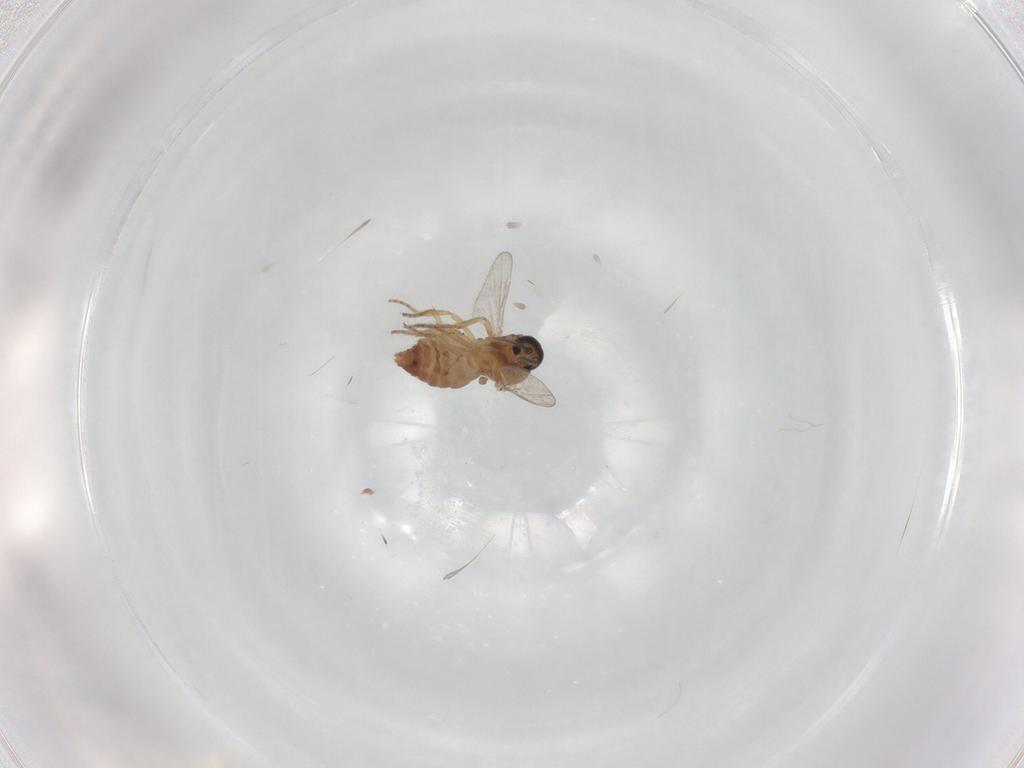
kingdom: Animalia
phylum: Arthropoda
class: Insecta
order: Diptera
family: Ceratopogonidae
